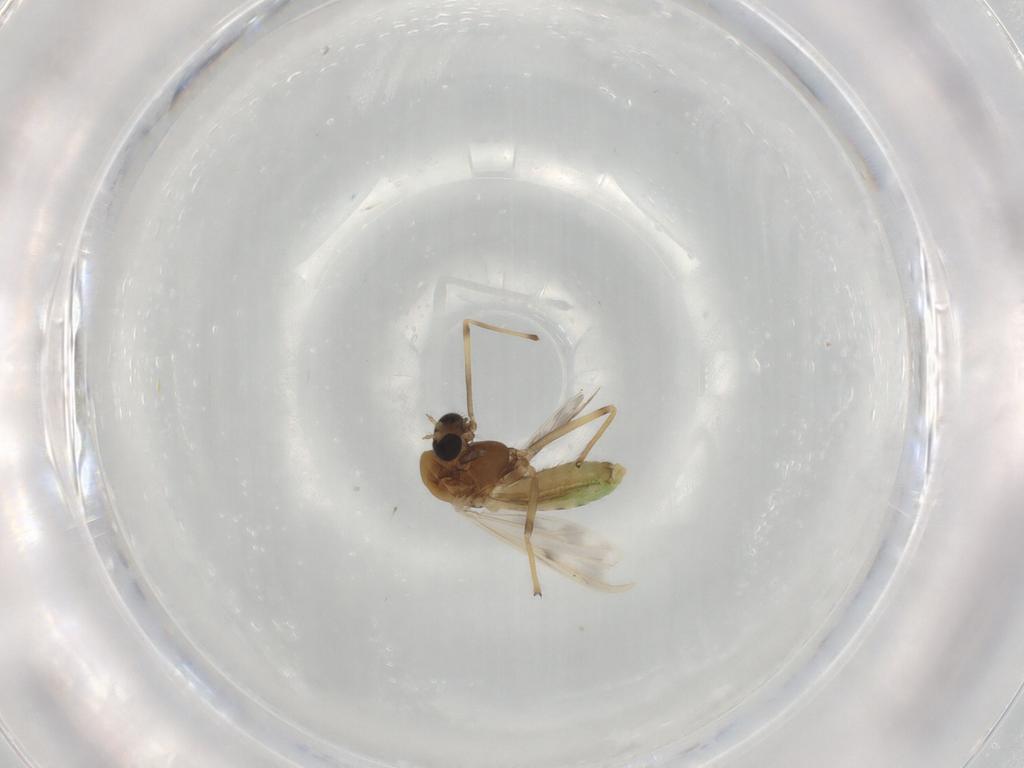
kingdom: Animalia
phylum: Arthropoda
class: Insecta
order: Diptera
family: Chironomidae
